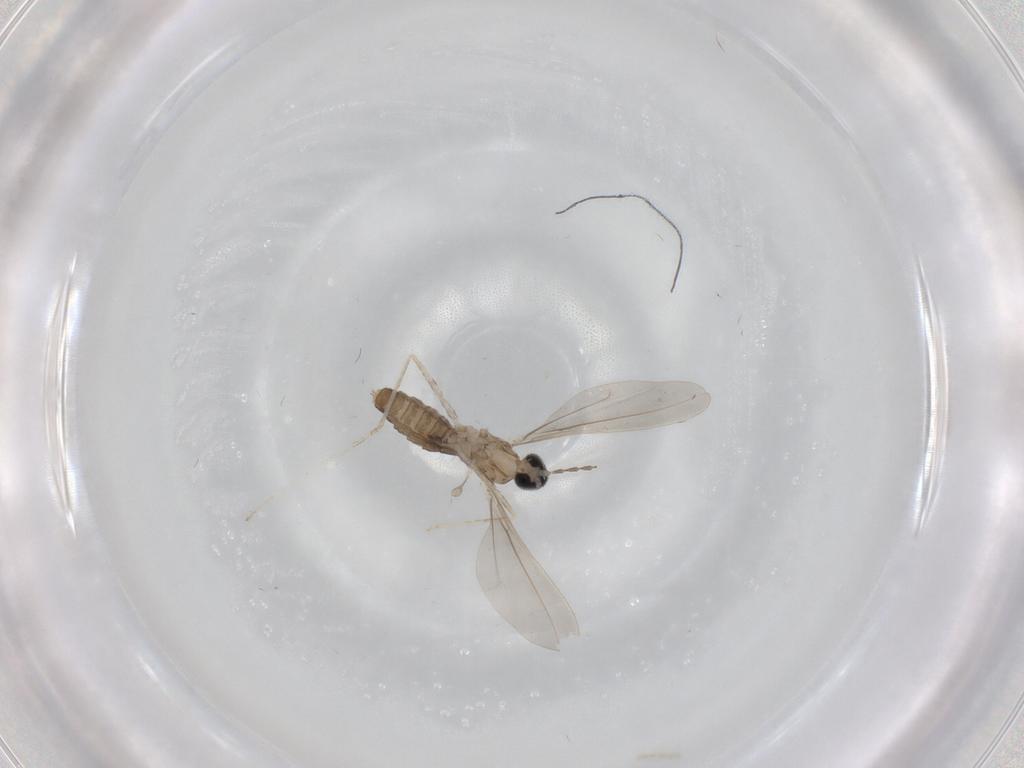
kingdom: Animalia
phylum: Arthropoda
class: Insecta
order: Diptera
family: Cecidomyiidae
